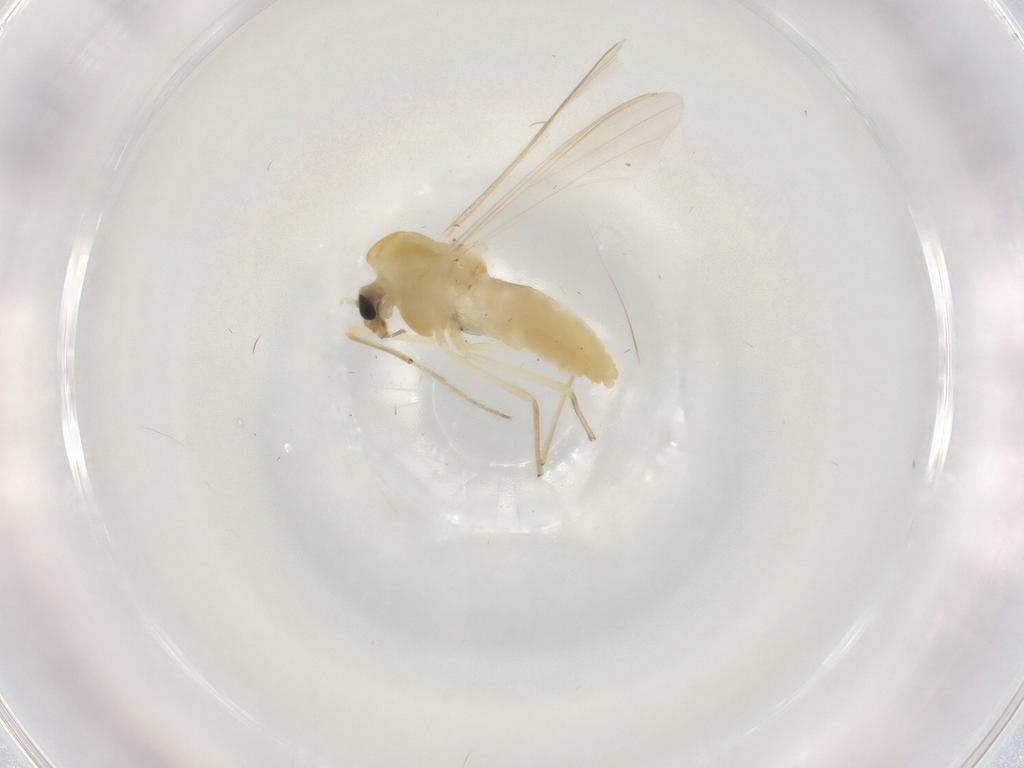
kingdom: Animalia
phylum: Arthropoda
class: Insecta
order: Diptera
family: Chironomidae
